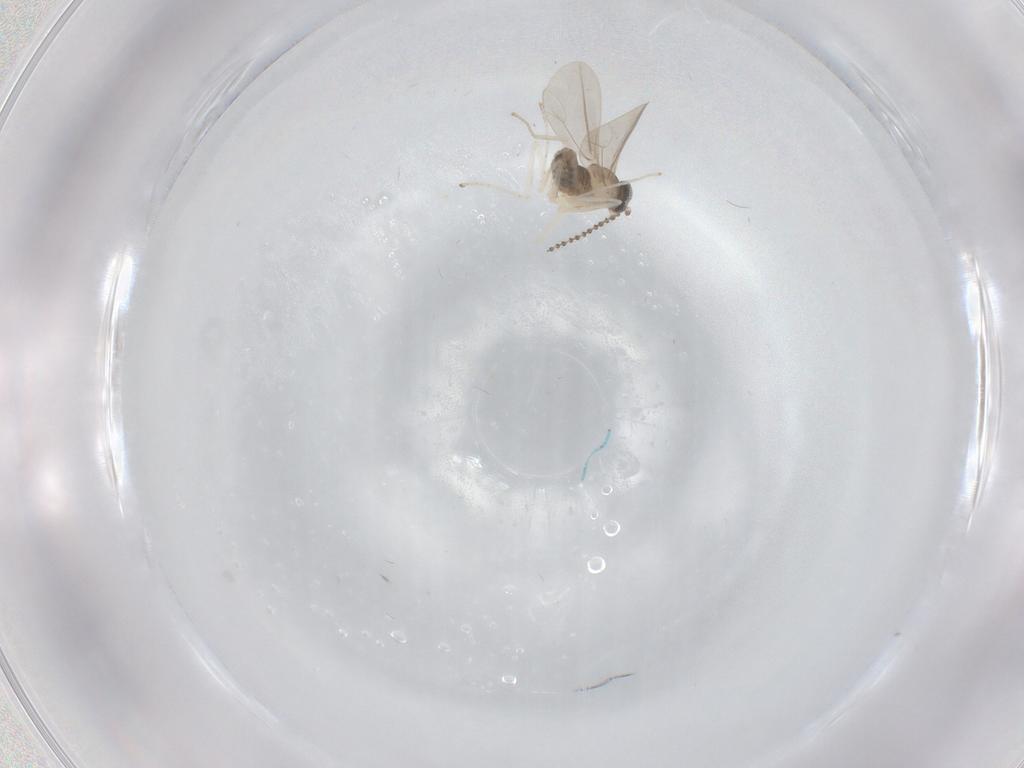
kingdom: Animalia
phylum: Arthropoda
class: Insecta
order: Diptera
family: Cecidomyiidae
